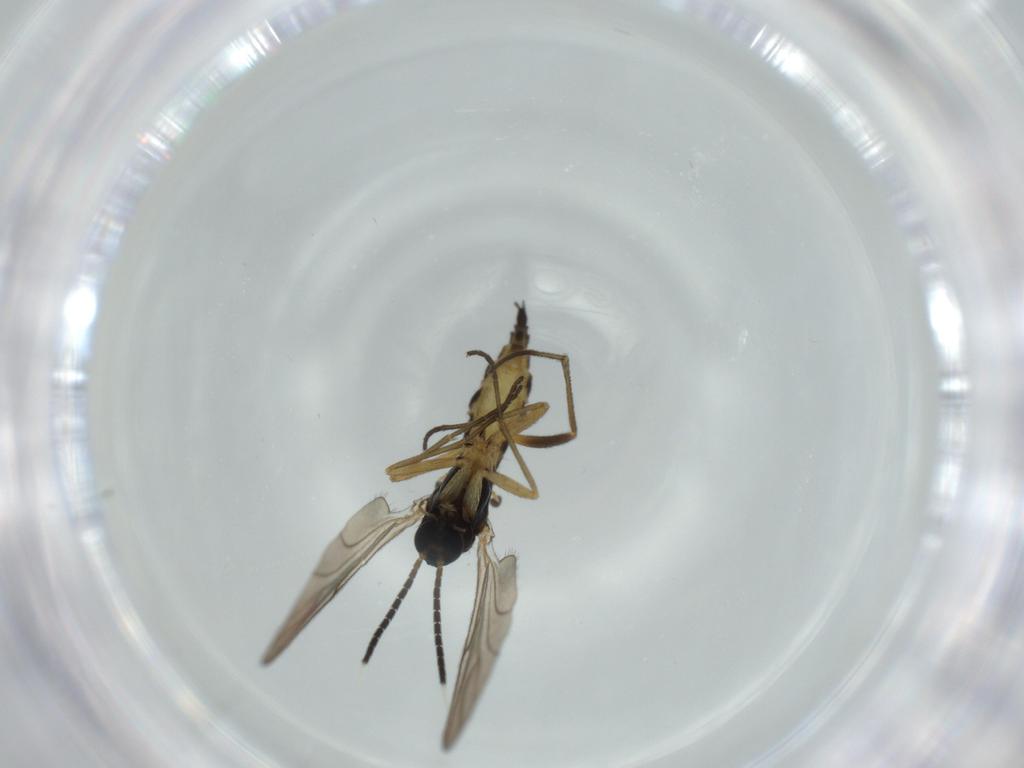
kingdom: Animalia
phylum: Arthropoda
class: Insecta
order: Diptera
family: Sciaridae
